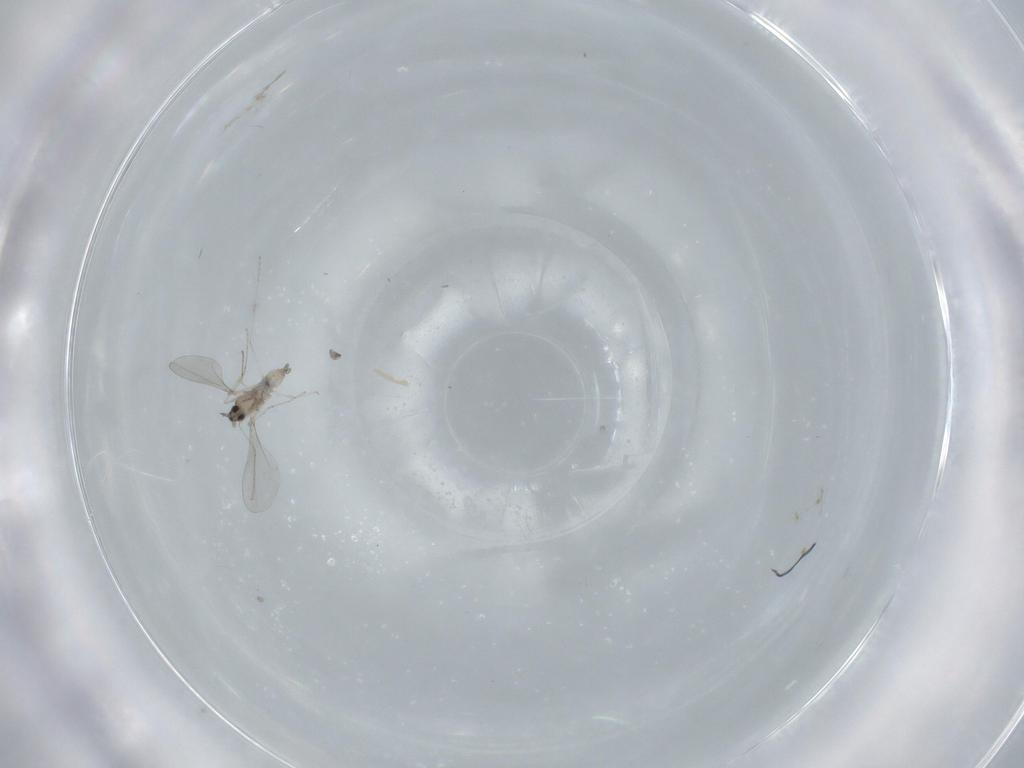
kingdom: Animalia
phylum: Arthropoda
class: Insecta
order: Diptera
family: Cecidomyiidae
